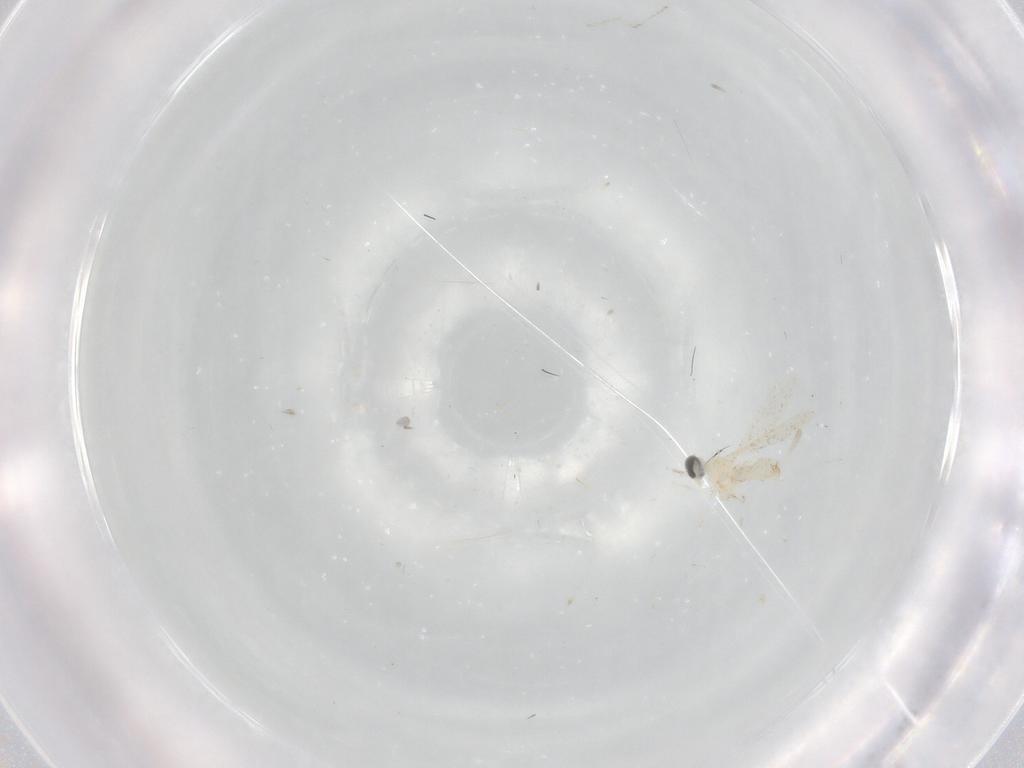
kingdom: Animalia
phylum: Arthropoda
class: Insecta
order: Diptera
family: Cecidomyiidae
